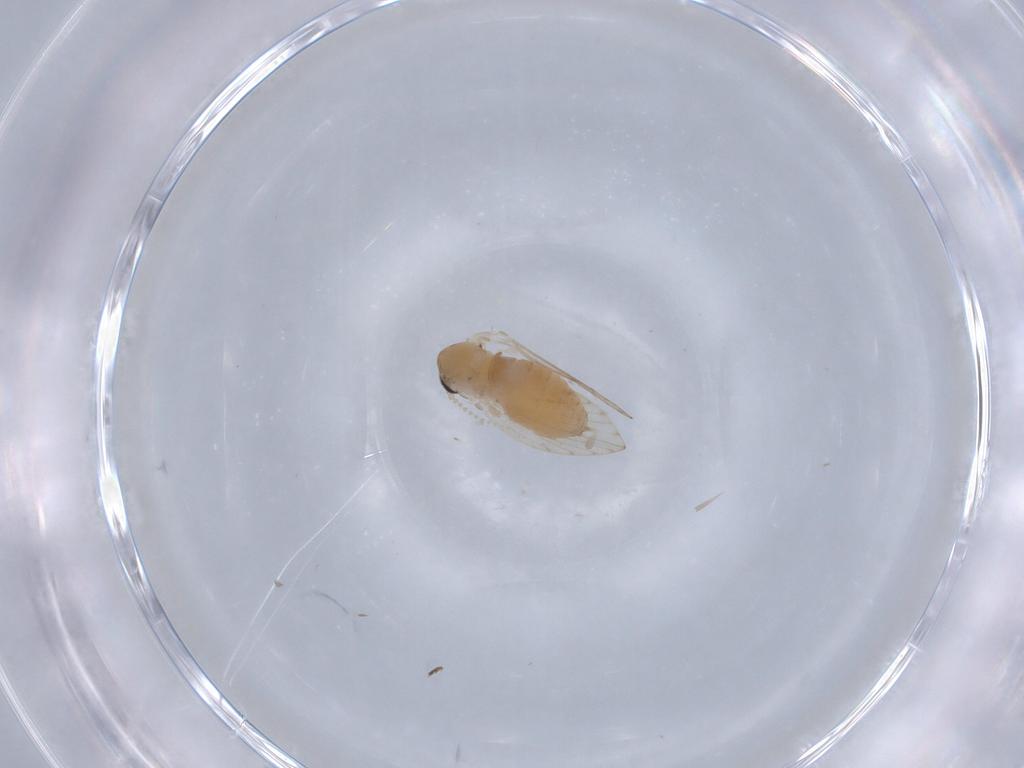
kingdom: Animalia
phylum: Arthropoda
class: Insecta
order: Diptera
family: Psychodidae
